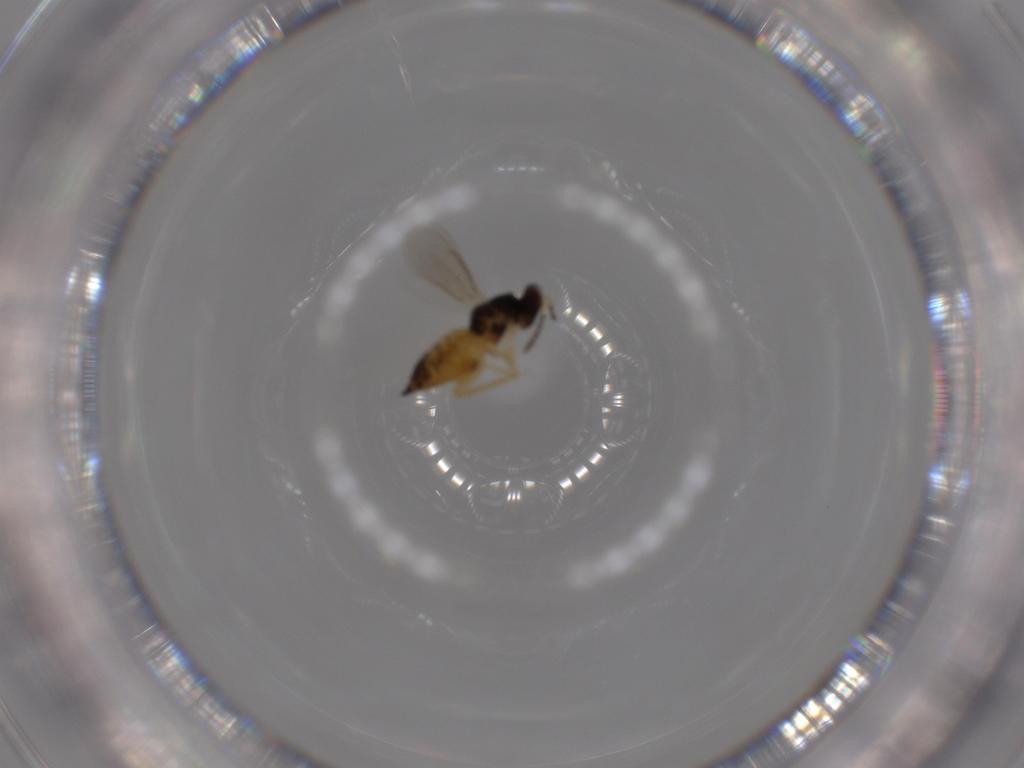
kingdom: Animalia
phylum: Arthropoda
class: Insecta
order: Hymenoptera
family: Eulophidae
